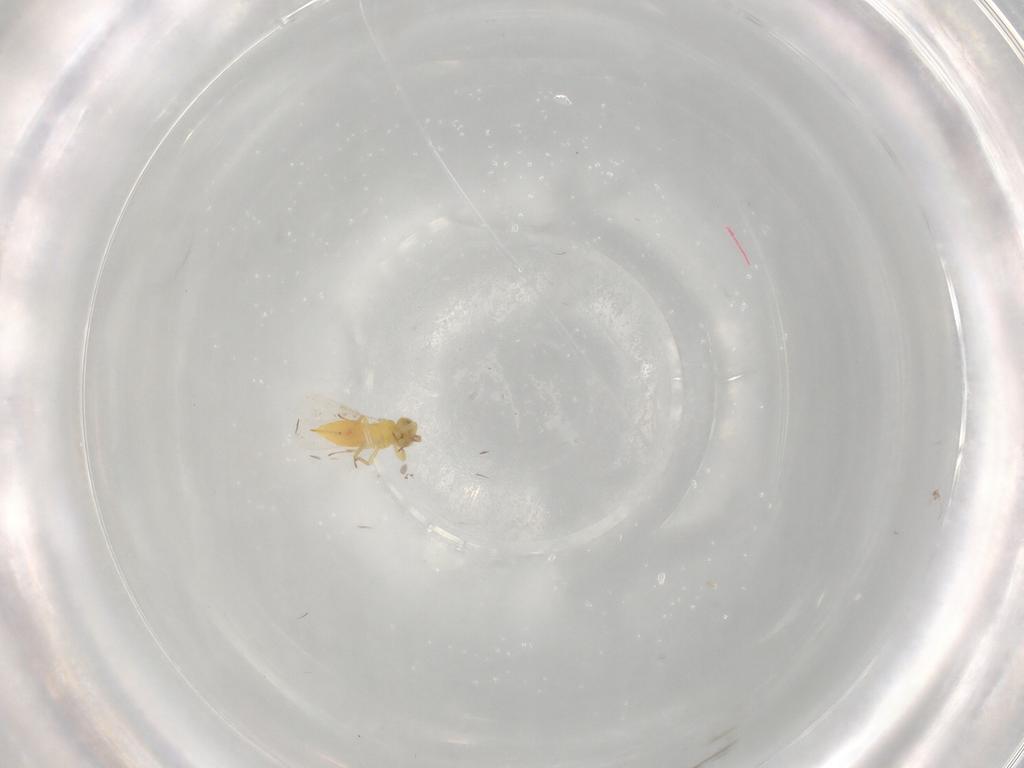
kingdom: Animalia
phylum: Arthropoda
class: Insecta
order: Hymenoptera
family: Aphelinidae
